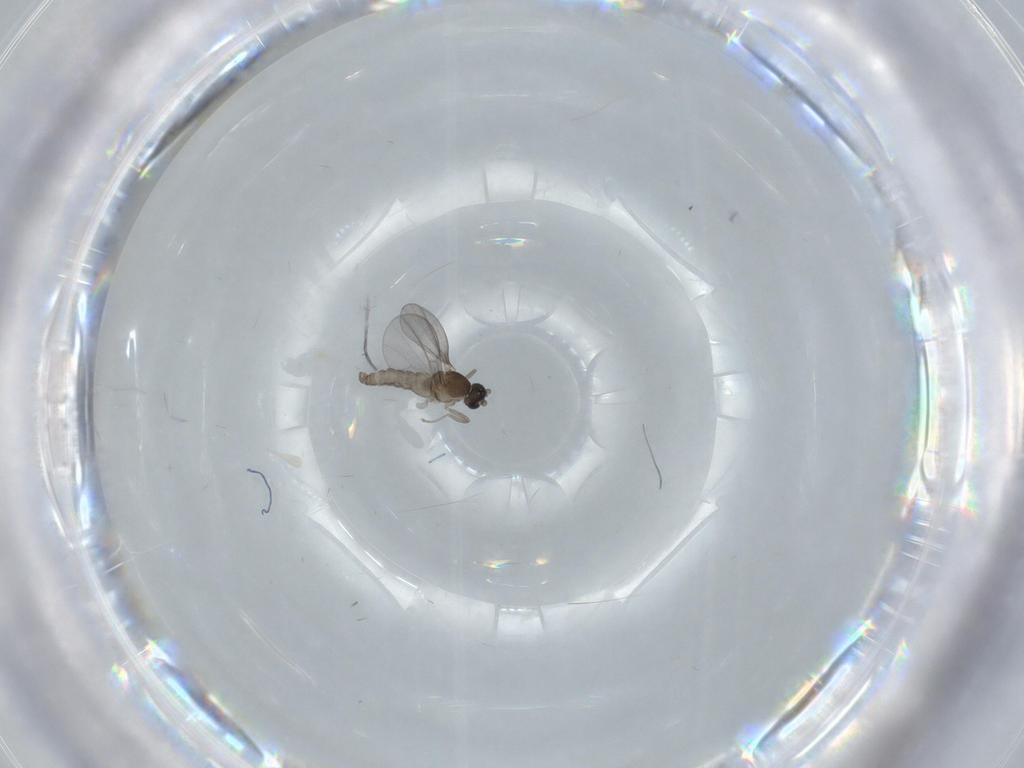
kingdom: Animalia
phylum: Arthropoda
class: Insecta
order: Diptera
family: Cecidomyiidae
